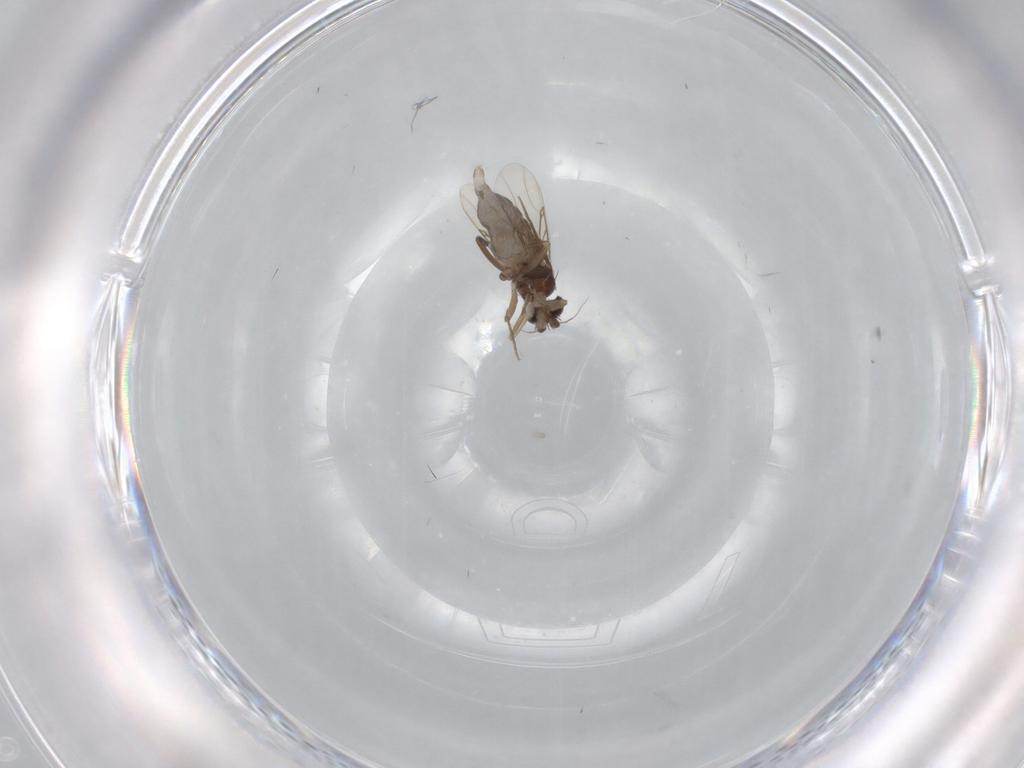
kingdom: Animalia
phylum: Arthropoda
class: Insecta
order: Diptera
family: Phoridae
